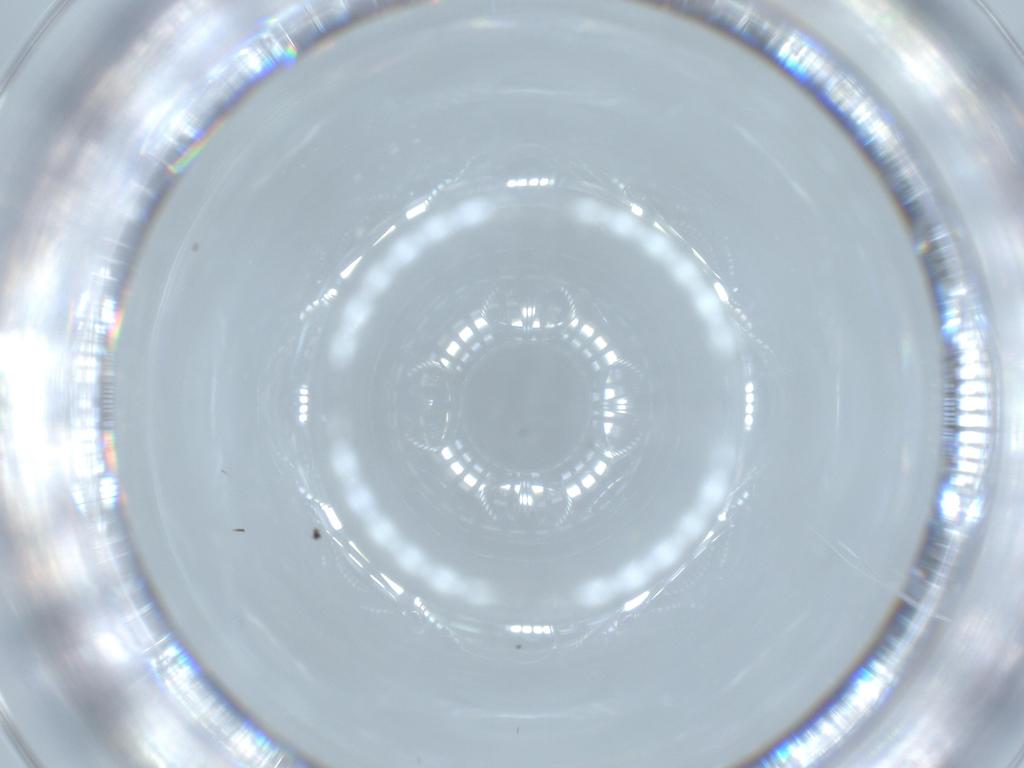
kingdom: Animalia
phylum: Arthropoda
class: Insecta
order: Diptera
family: Cecidomyiidae
